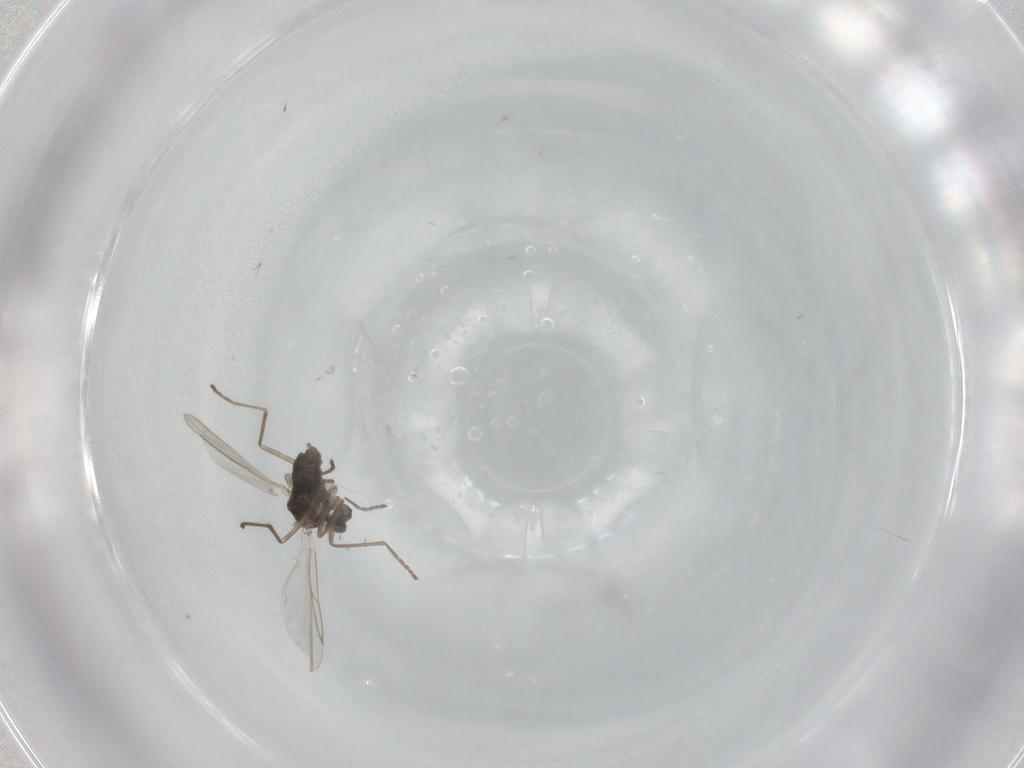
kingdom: Animalia
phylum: Arthropoda
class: Insecta
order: Diptera
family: Cecidomyiidae
